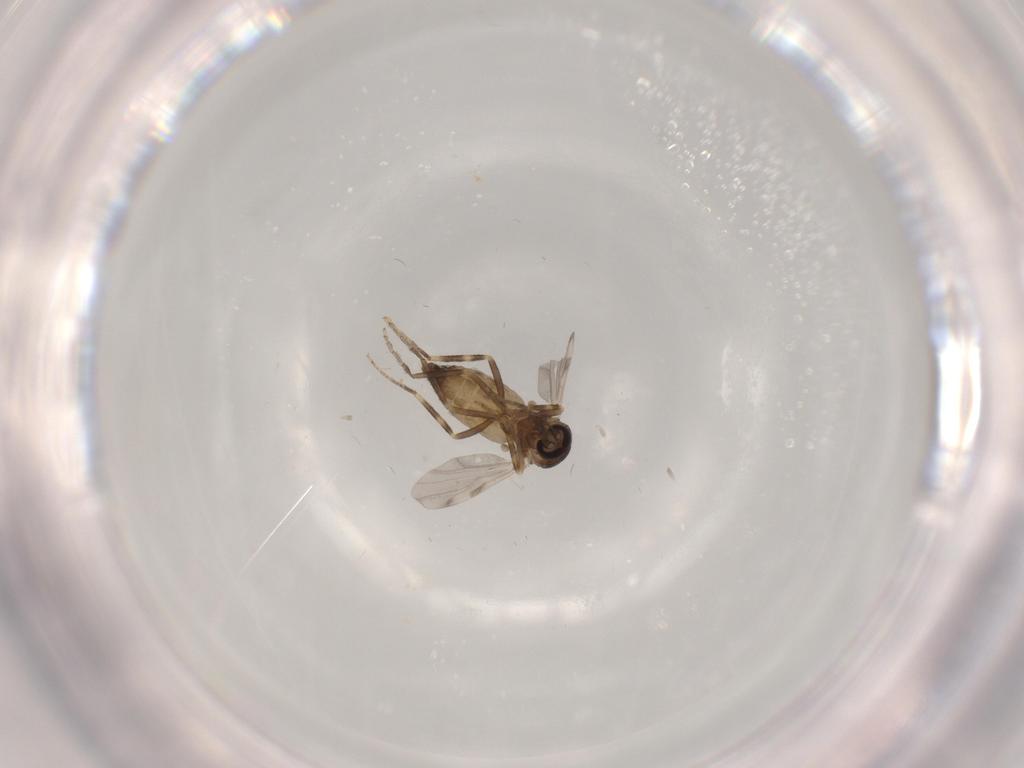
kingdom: Animalia
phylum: Arthropoda
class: Insecta
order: Diptera
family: Ceratopogonidae
